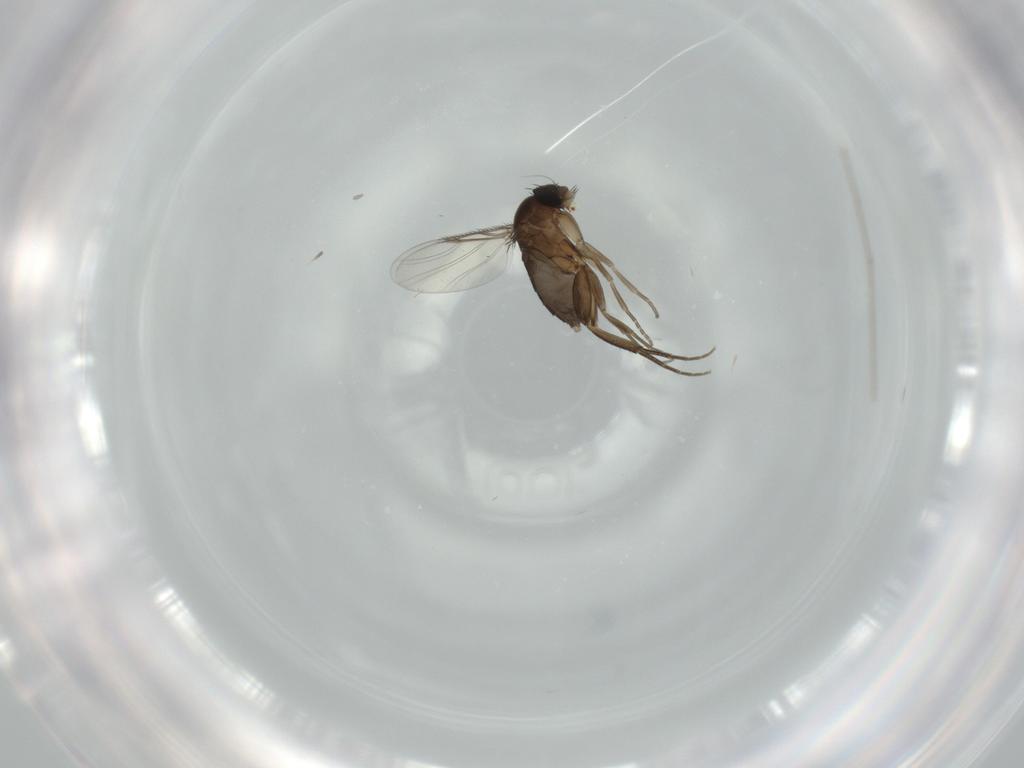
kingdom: Animalia
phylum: Arthropoda
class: Insecta
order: Diptera
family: Phoridae
